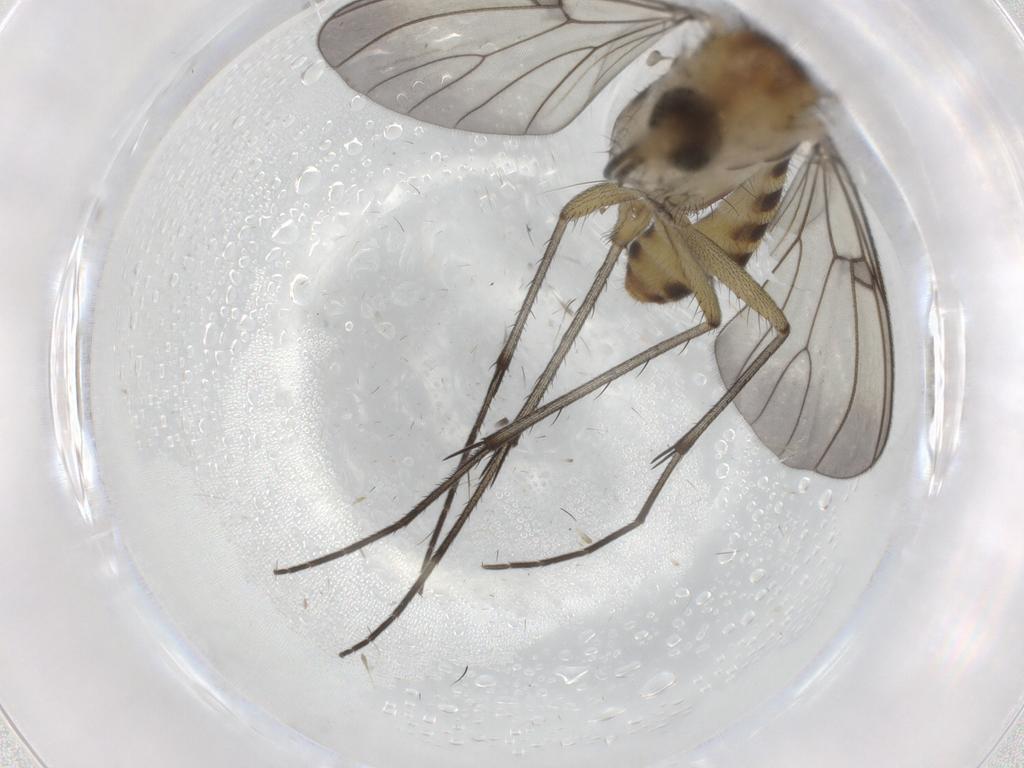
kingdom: Animalia
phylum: Arthropoda
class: Insecta
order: Diptera
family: Mycetophilidae
